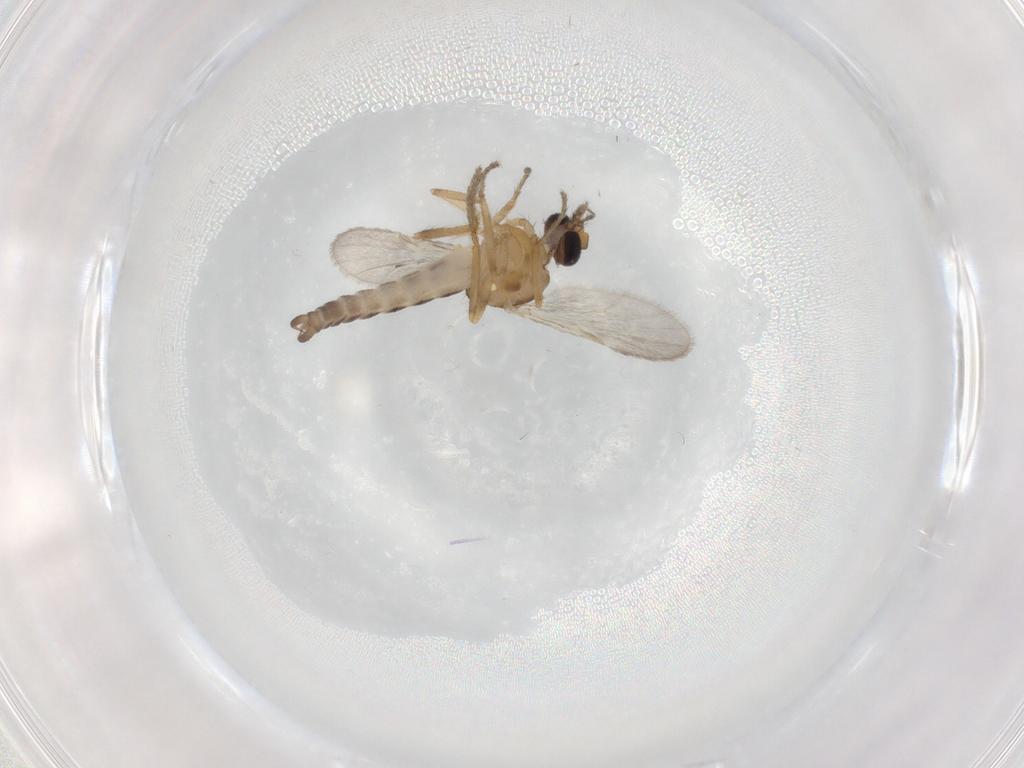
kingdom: Animalia
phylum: Arthropoda
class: Insecta
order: Diptera
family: Ceratopogonidae
